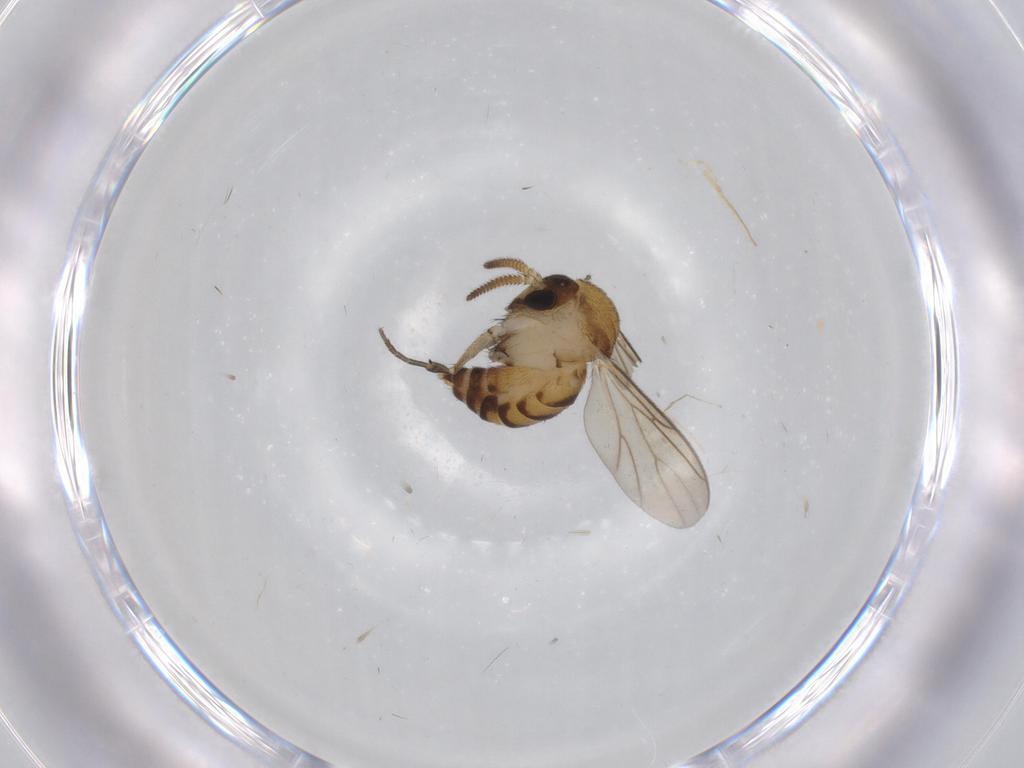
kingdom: Animalia
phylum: Arthropoda
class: Insecta
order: Diptera
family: Mycetophilidae
